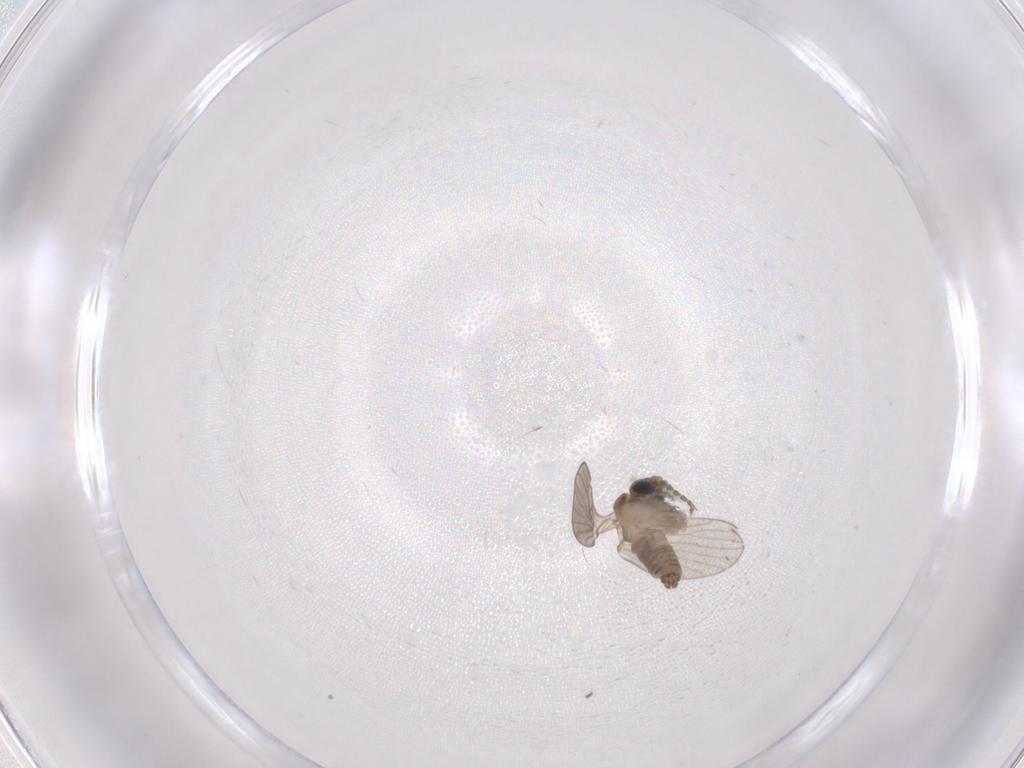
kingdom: Animalia
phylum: Arthropoda
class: Insecta
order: Diptera
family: Chironomidae
